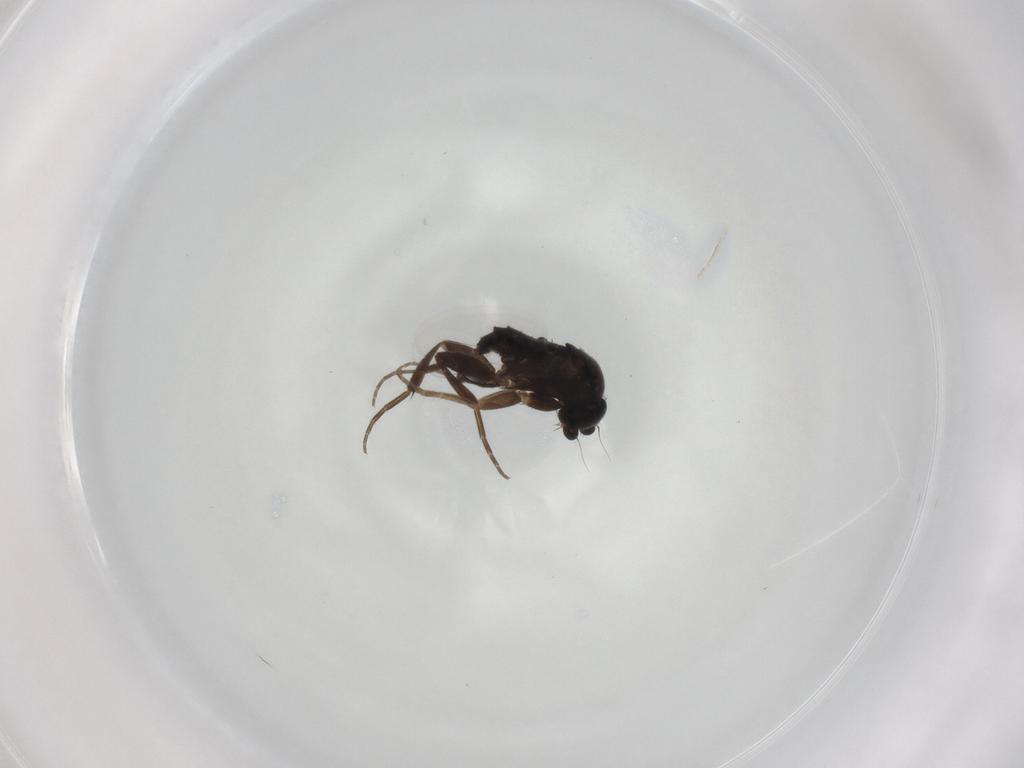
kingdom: Animalia
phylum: Arthropoda
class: Insecta
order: Diptera
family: Phoridae
